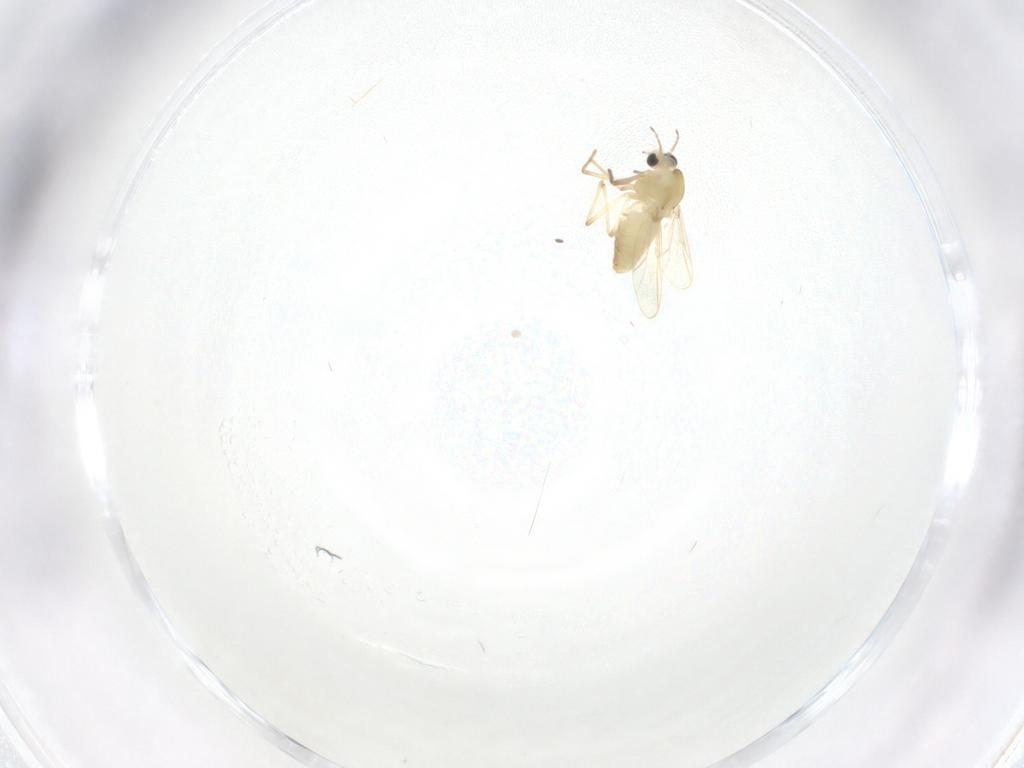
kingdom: Animalia
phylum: Arthropoda
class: Insecta
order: Diptera
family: Chironomidae
